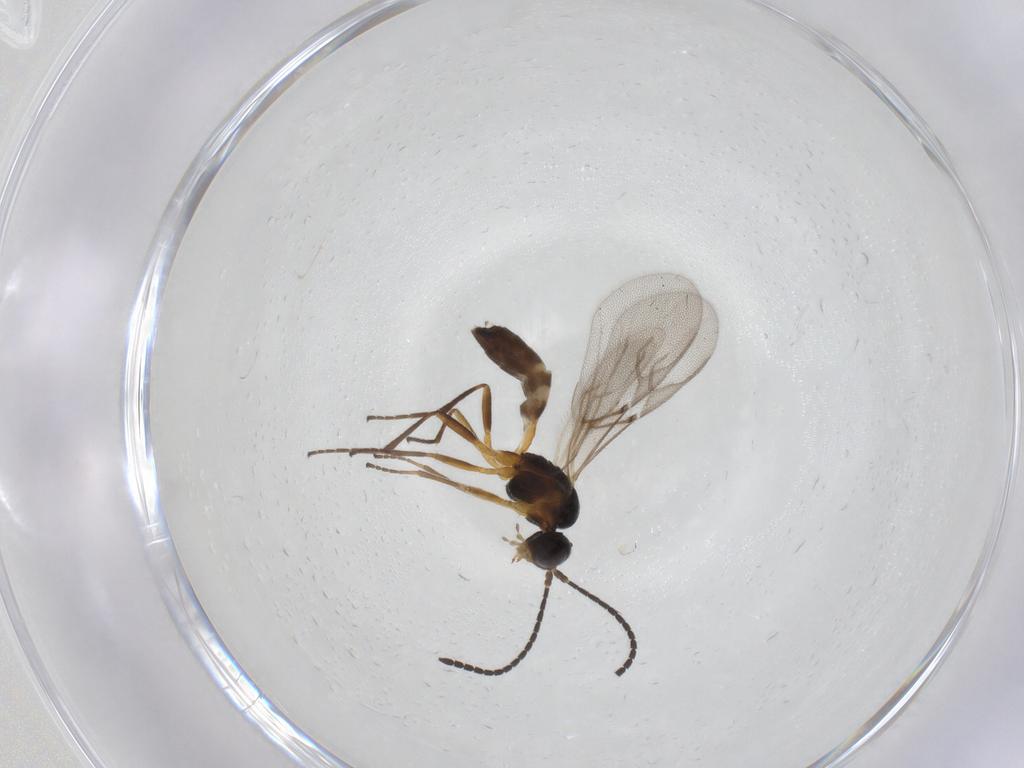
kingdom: Animalia
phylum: Arthropoda
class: Insecta
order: Hymenoptera
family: Braconidae
